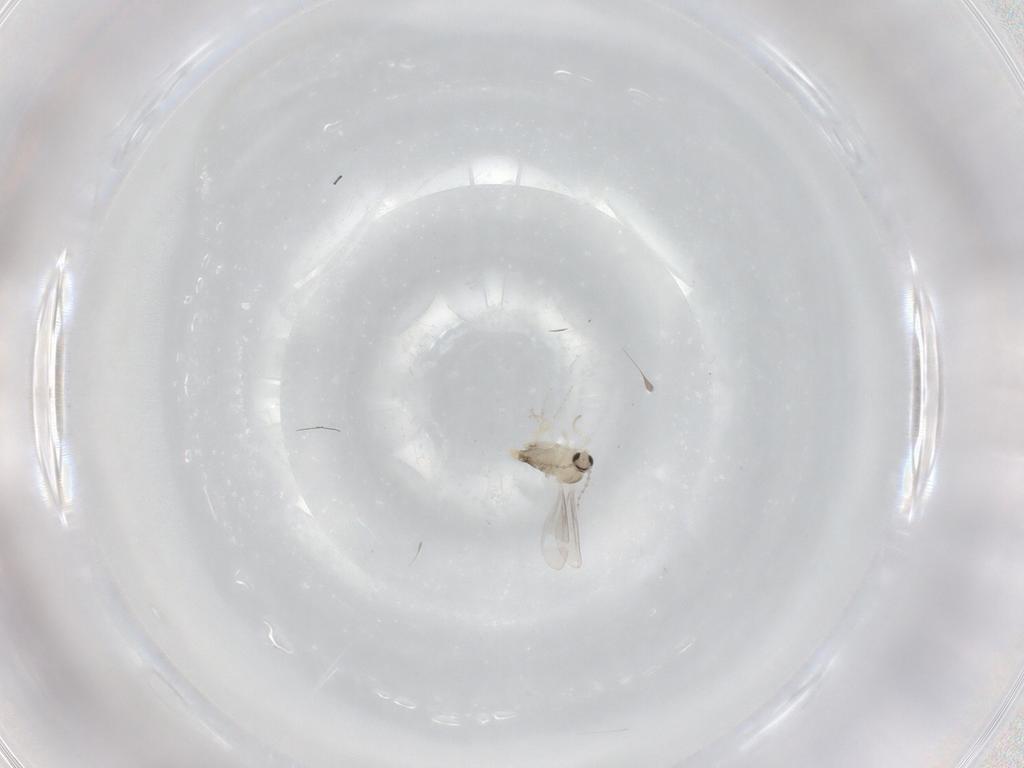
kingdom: Animalia
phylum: Arthropoda
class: Insecta
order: Diptera
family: Cecidomyiidae
